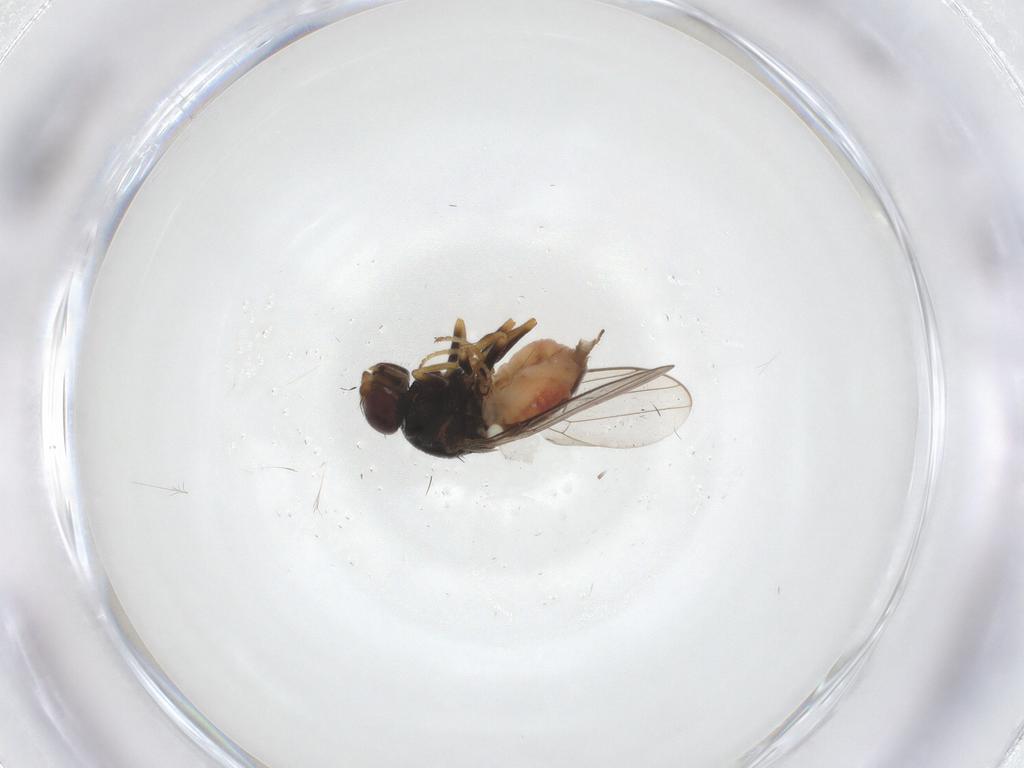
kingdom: Animalia
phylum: Arthropoda
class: Insecta
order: Diptera
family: Chloropidae
